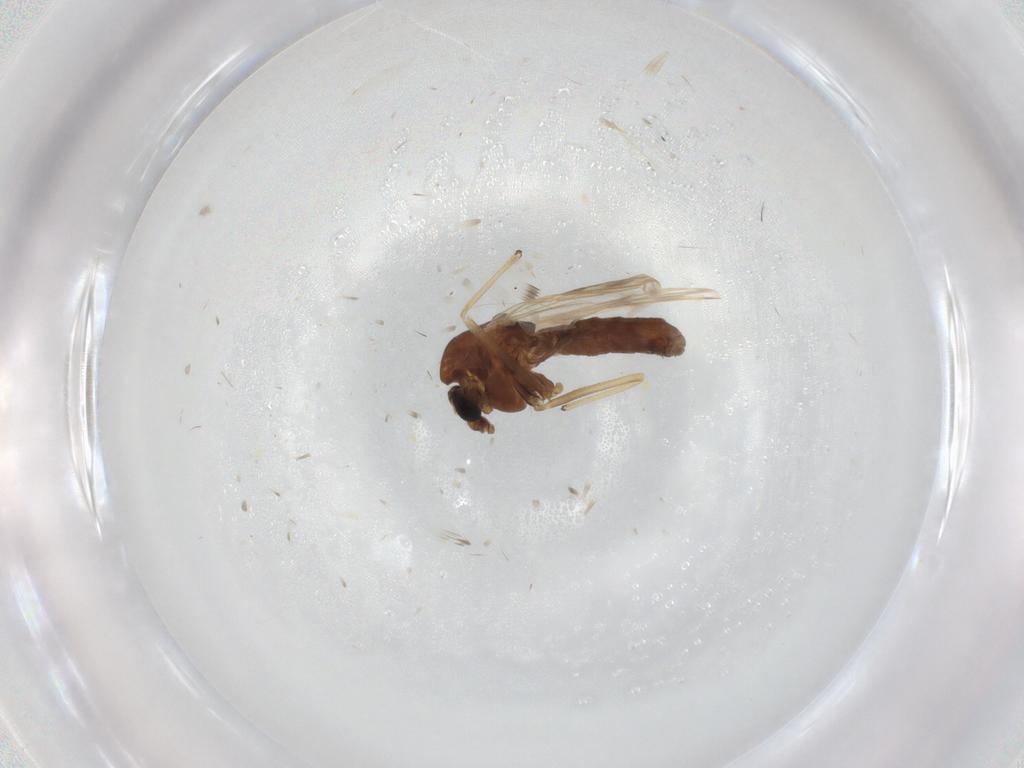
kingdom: Animalia
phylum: Arthropoda
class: Insecta
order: Diptera
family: Chironomidae
